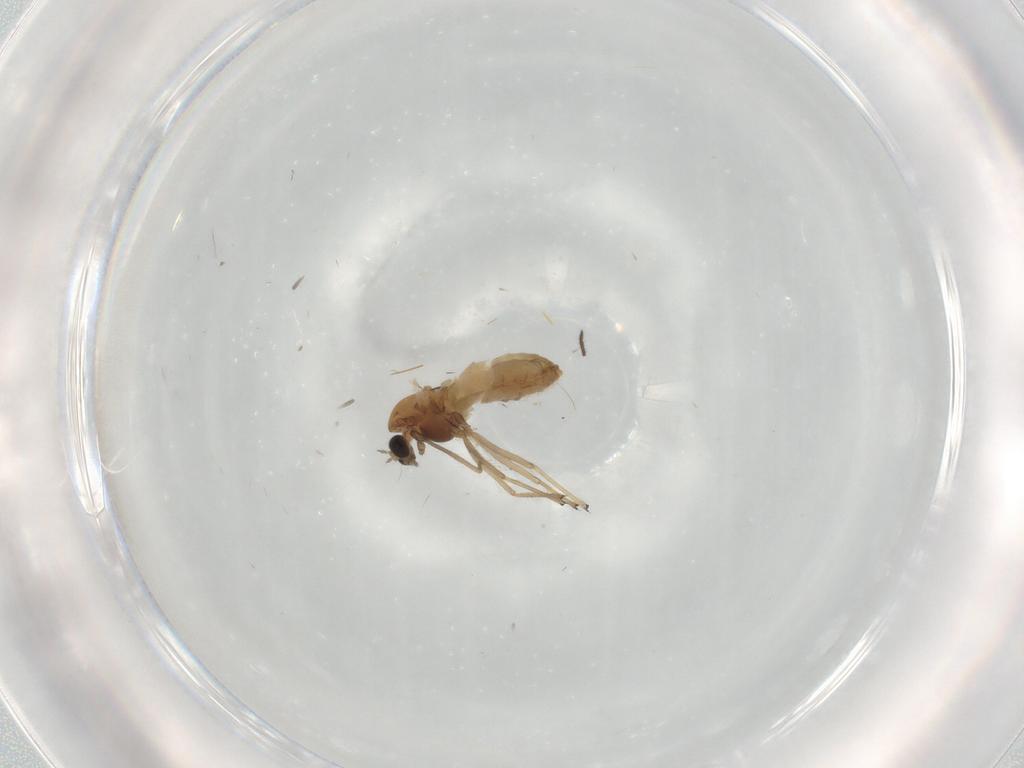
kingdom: Animalia
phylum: Arthropoda
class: Insecta
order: Diptera
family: Chironomidae
